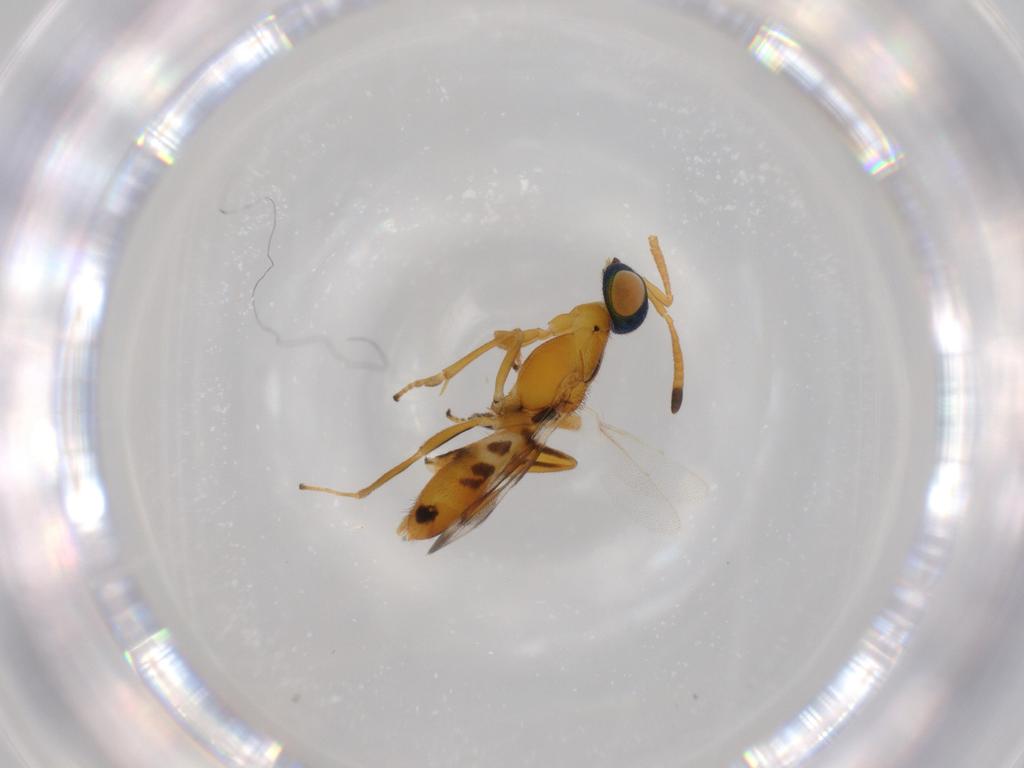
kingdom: Animalia
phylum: Arthropoda
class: Insecta
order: Hymenoptera
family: Eupelmidae
